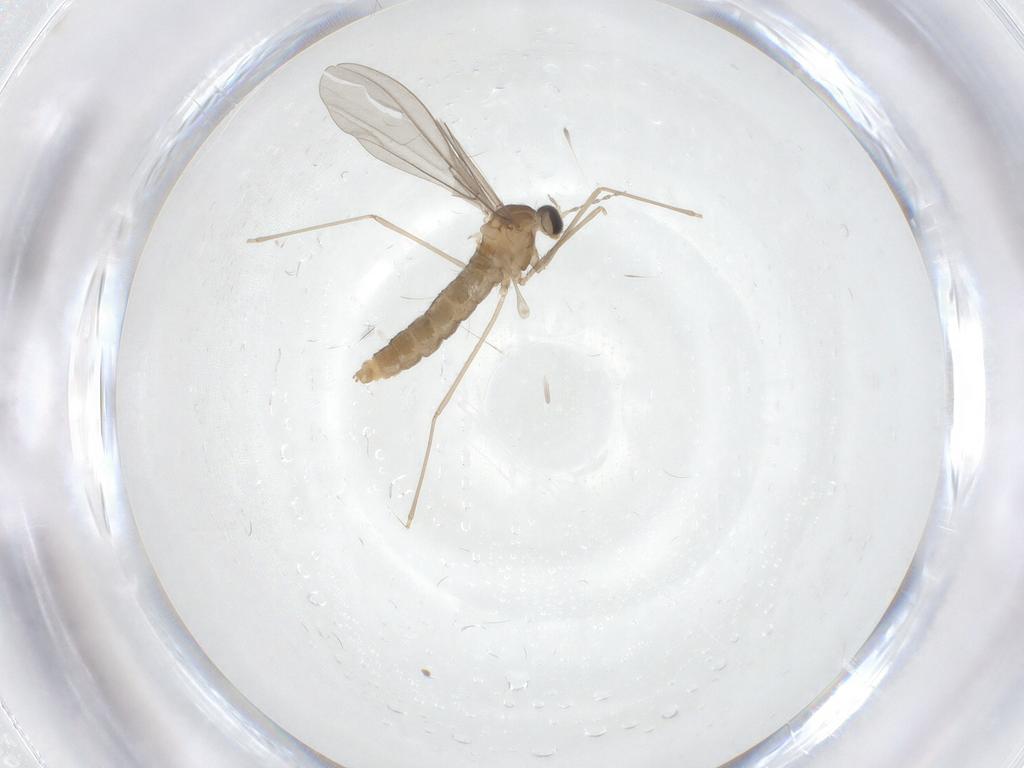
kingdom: Animalia
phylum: Arthropoda
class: Insecta
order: Diptera
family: Cecidomyiidae
